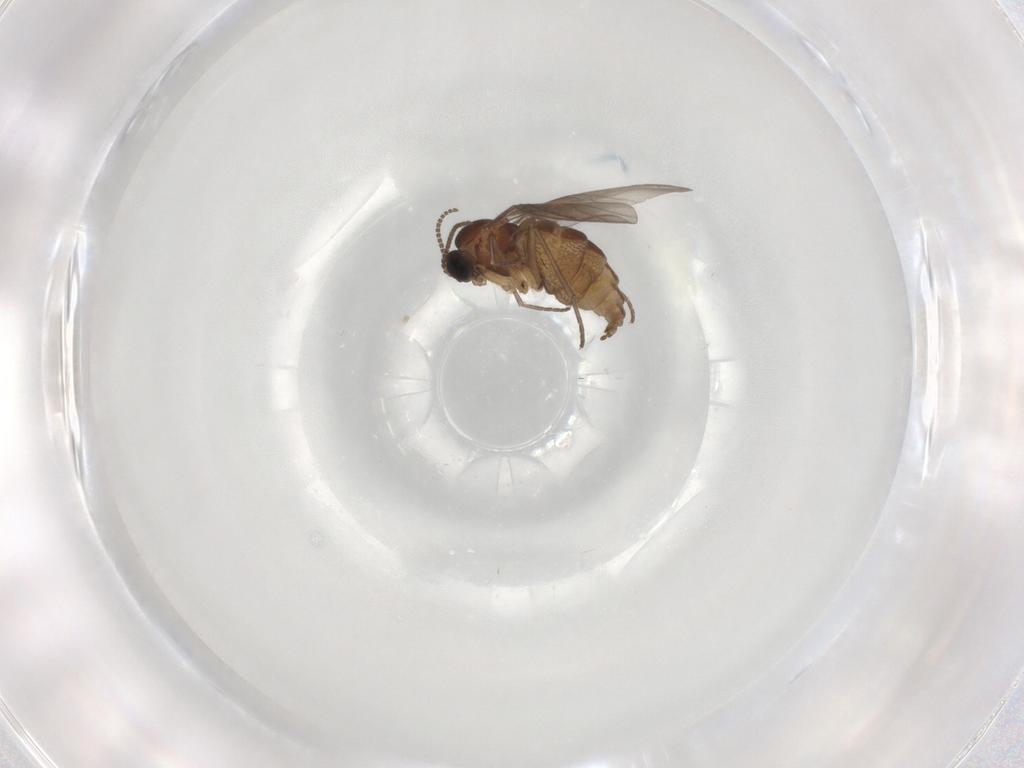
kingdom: Animalia
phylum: Arthropoda
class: Insecta
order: Diptera
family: Sciaridae
